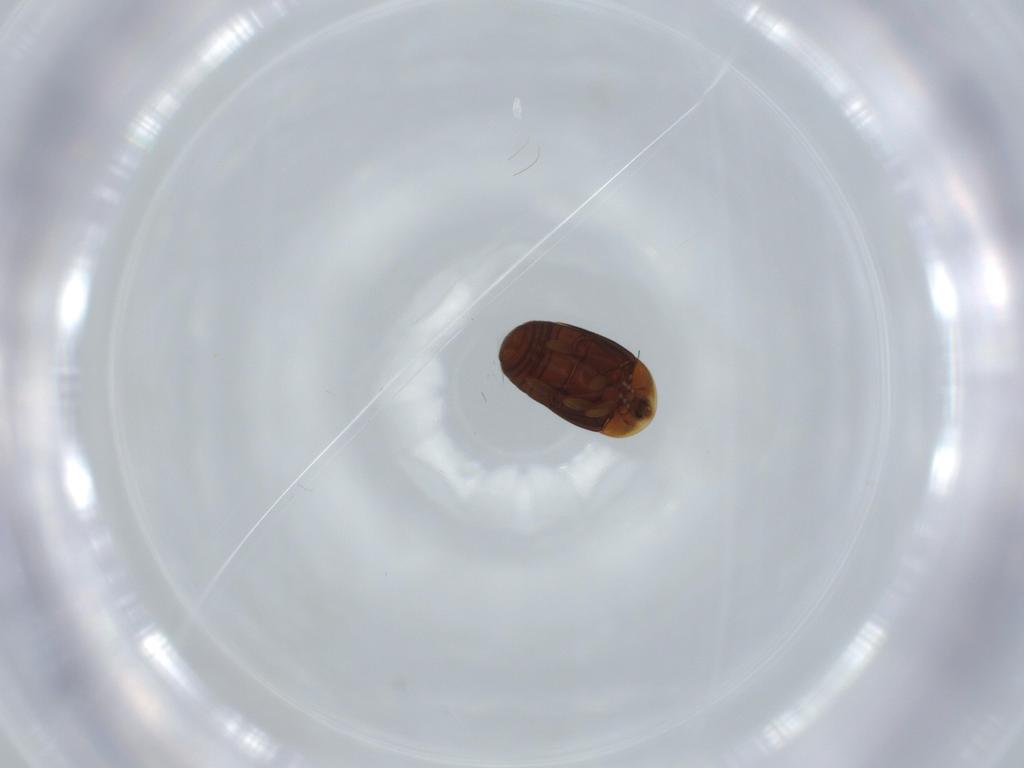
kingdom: Animalia
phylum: Arthropoda
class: Insecta
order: Coleoptera
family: Corylophidae
